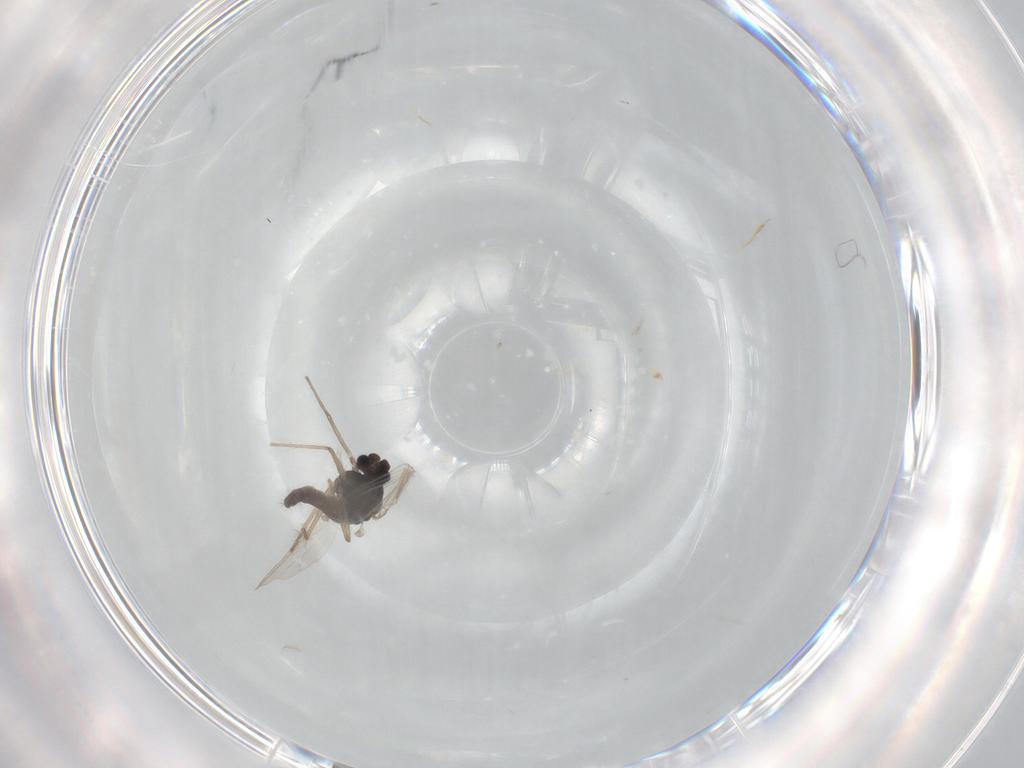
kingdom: Animalia
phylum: Arthropoda
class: Insecta
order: Diptera
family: Chironomidae
